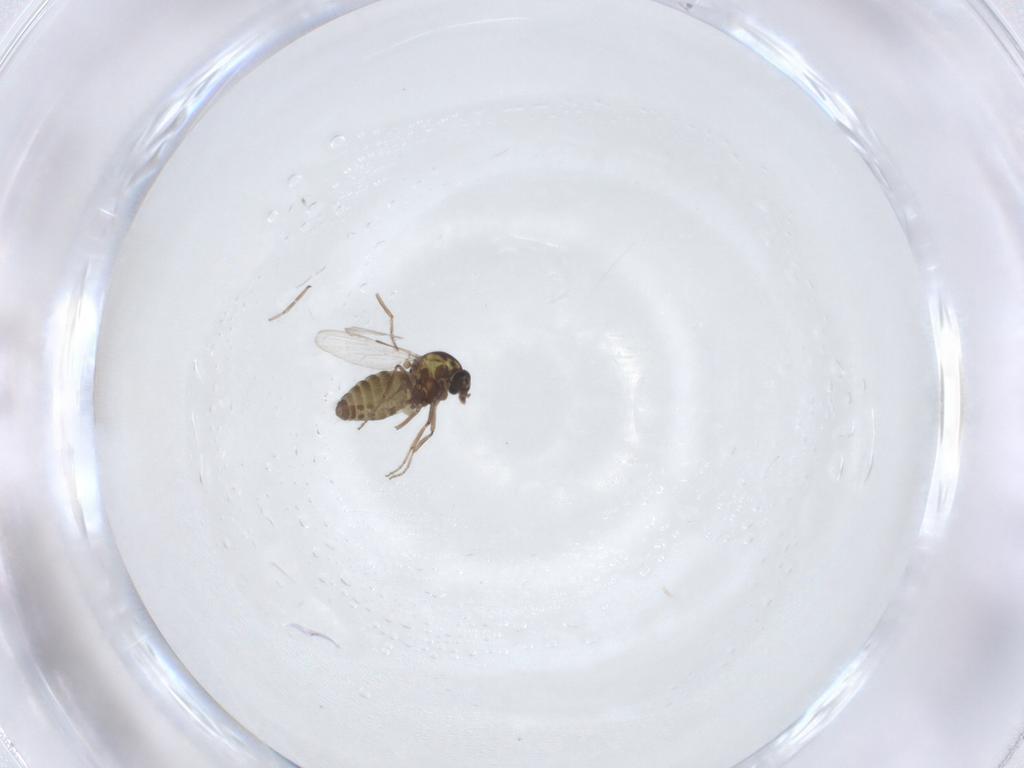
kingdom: Animalia
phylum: Arthropoda
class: Insecta
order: Diptera
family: Ceratopogonidae
